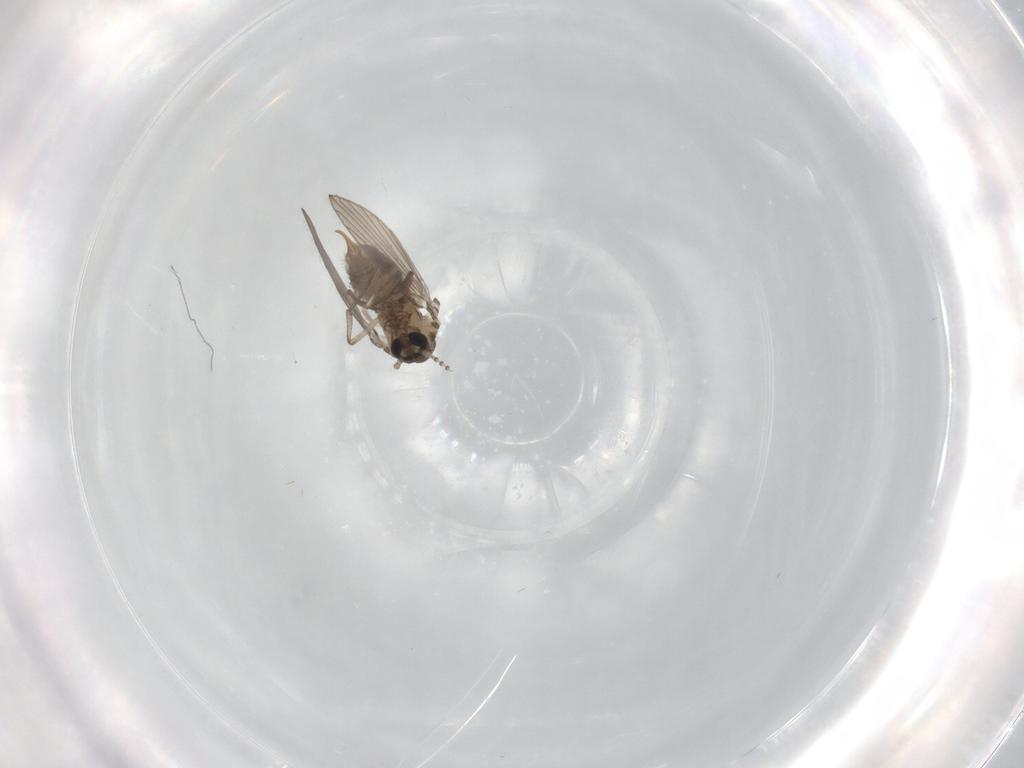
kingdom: Animalia
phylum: Arthropoda
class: Insecta
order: Diptera
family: Psychodidae
